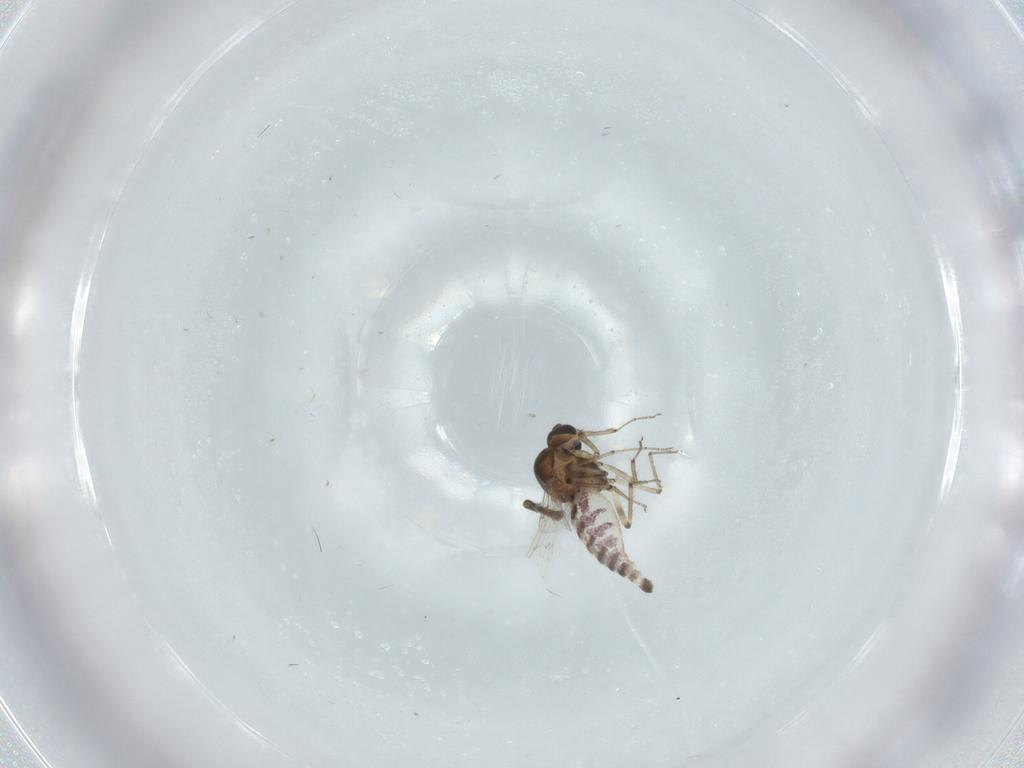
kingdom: Animalia
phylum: Arthropoda
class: Insecta
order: Diptera
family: Ceratopogonidae
